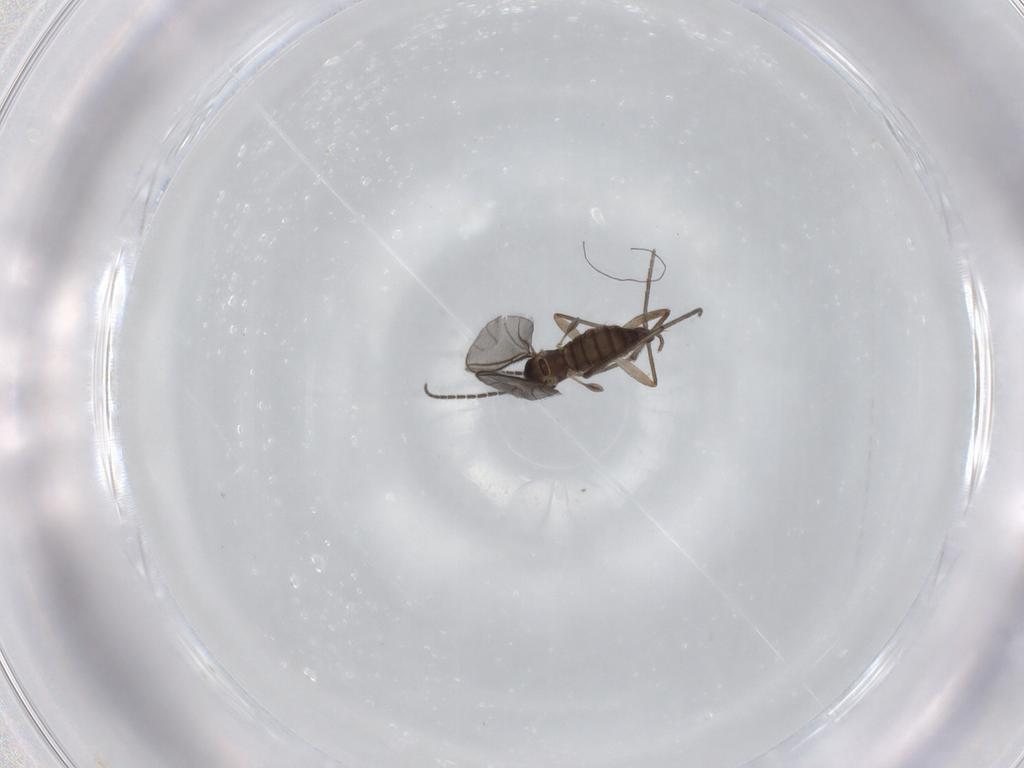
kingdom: Animalia
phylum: Arthropoda
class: Insecta
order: Diptera
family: Sciaridae
